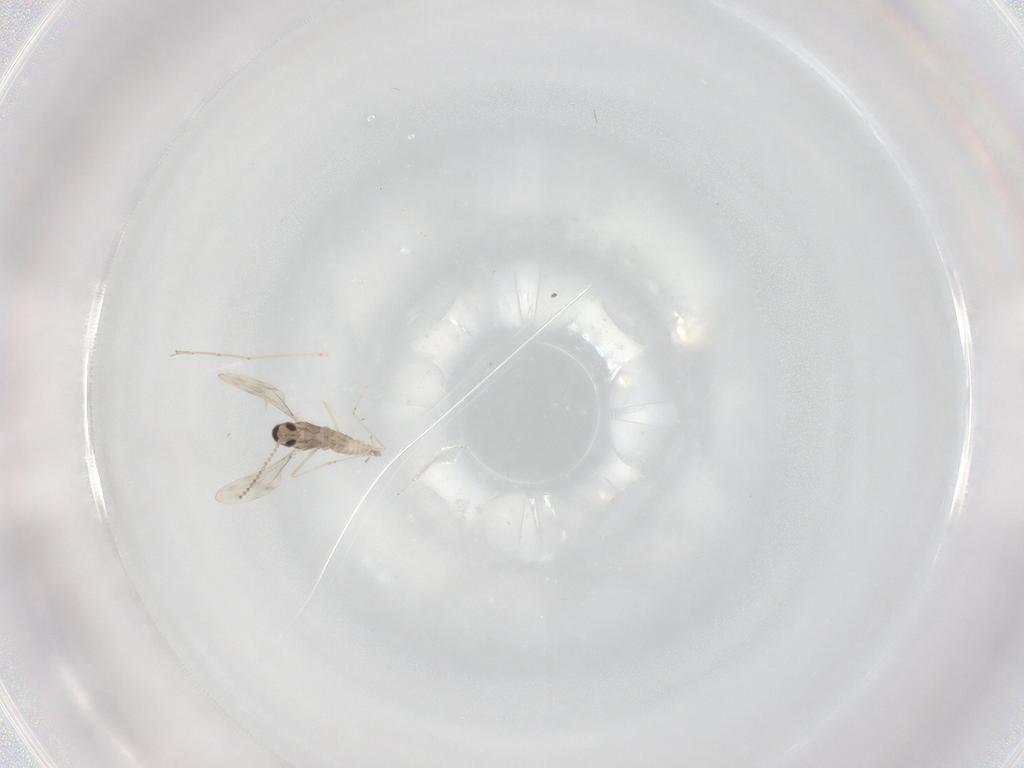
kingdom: Animalia
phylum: Arthropoda
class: Insecta
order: Diptera
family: Cecidomyiidae
